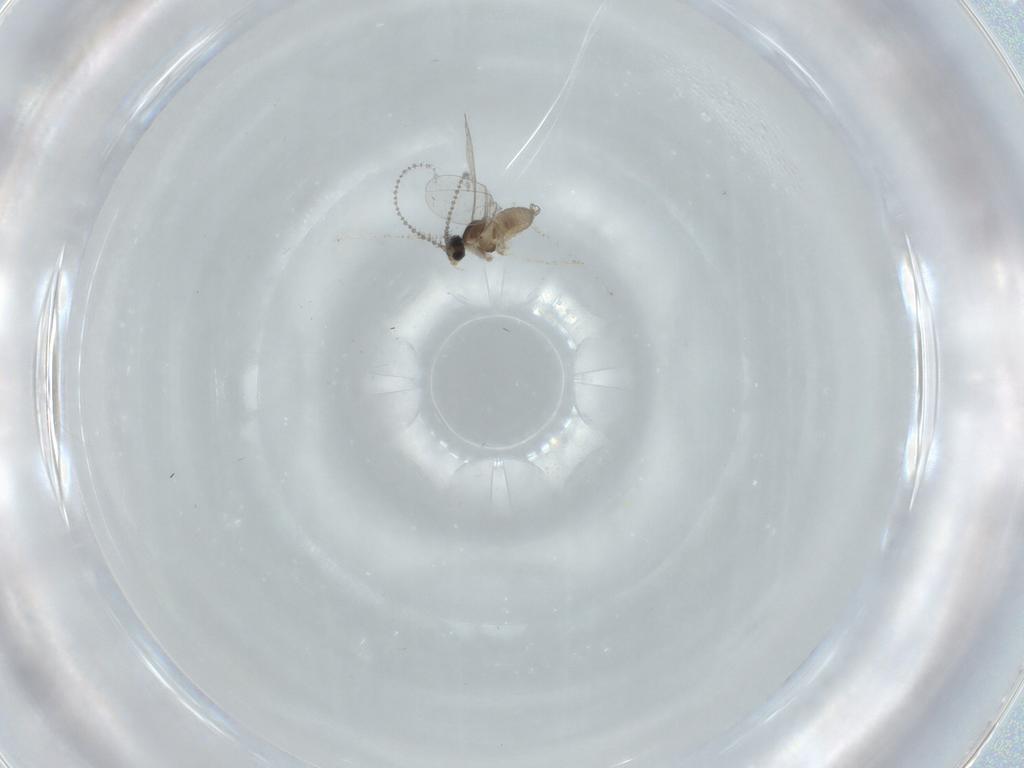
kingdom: Animalia
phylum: Arthropoda
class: Insecta
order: Diptera
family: Cecidomyiidae
